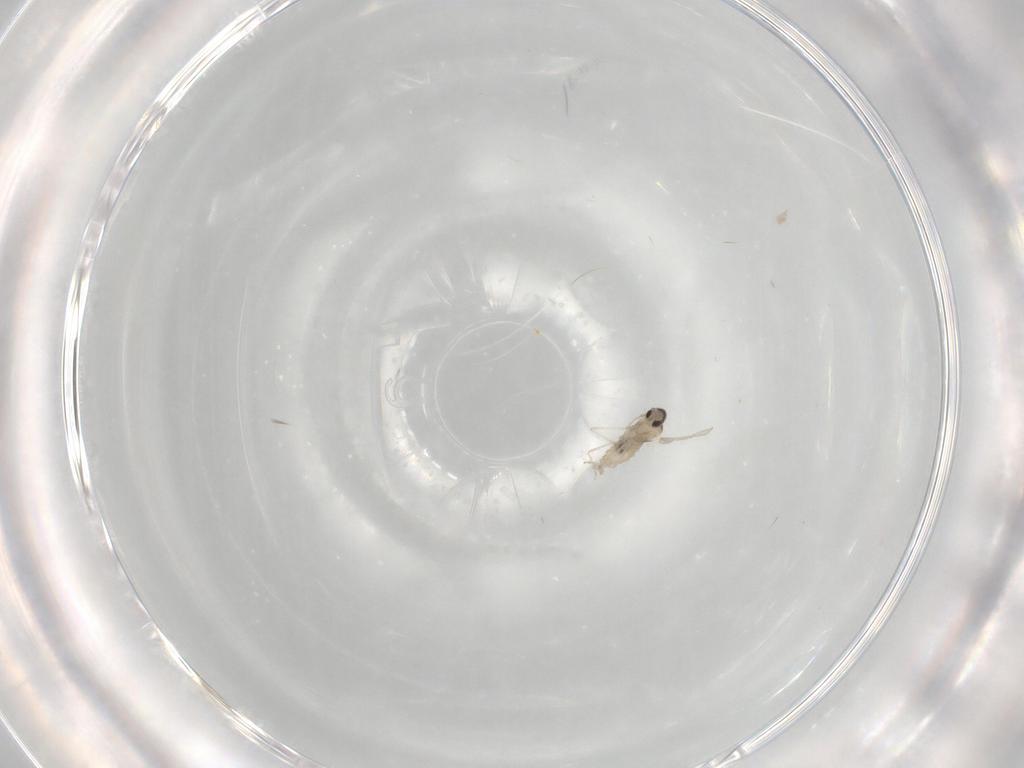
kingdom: Animalia
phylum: Arthropoda
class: Insecta
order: Diptera
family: Cecidomyiidae
